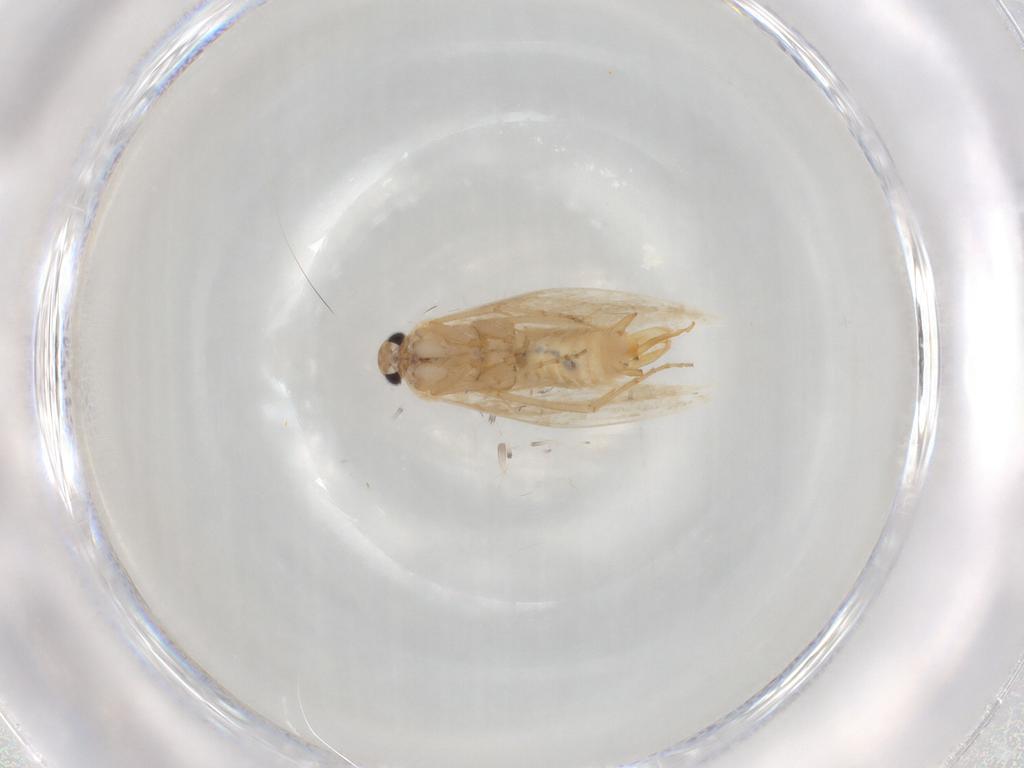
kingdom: Animalia
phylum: Arthropoda
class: Insecta
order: Lepidoptera
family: Bucculatricidae
